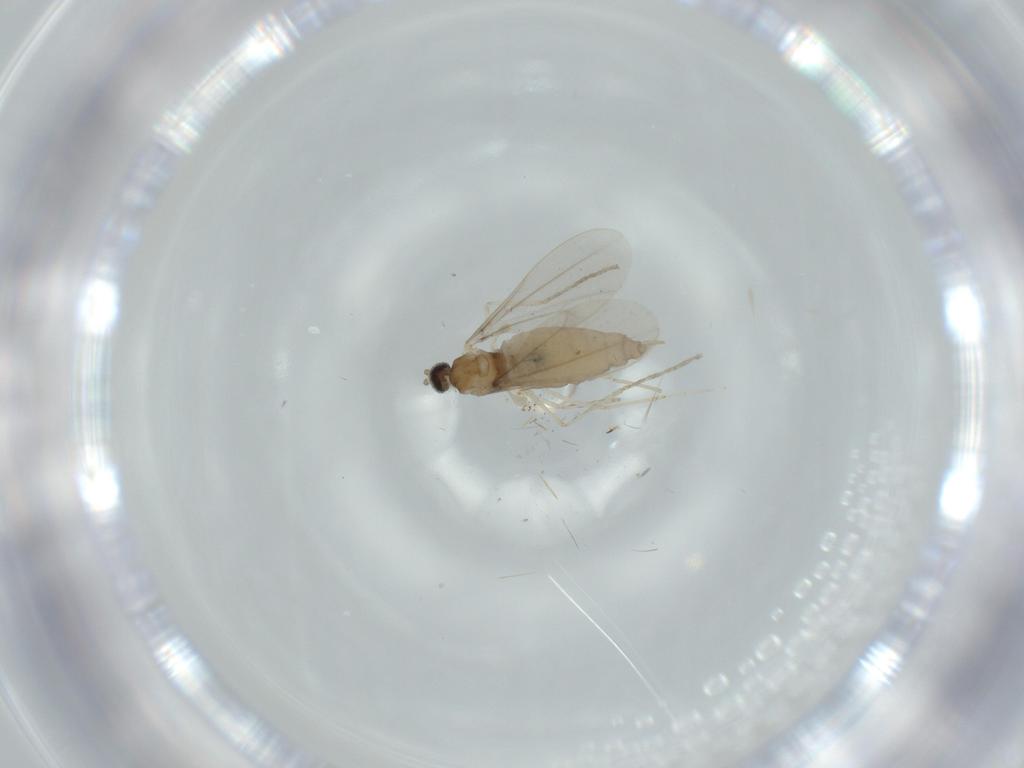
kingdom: Animalia
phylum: Arthropoda
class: Insecta
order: Diptera
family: Cecidomyiidae
